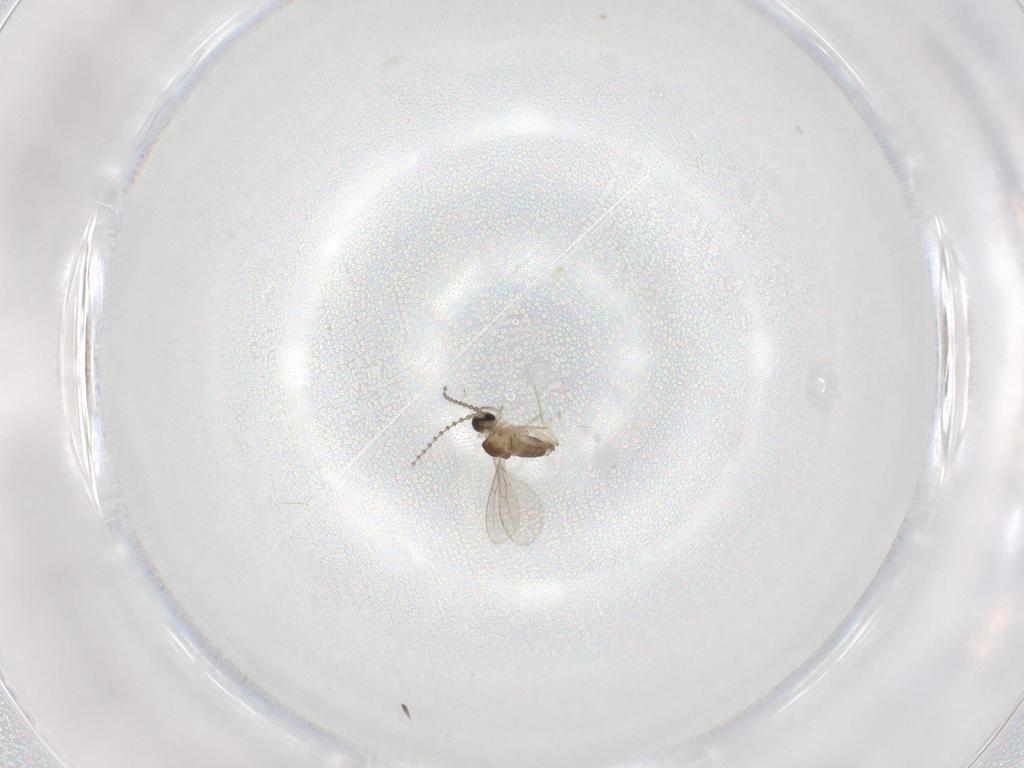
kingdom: Animalia
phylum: Arthropoda
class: Insecta
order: Diptera
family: Cecidomyiidae
